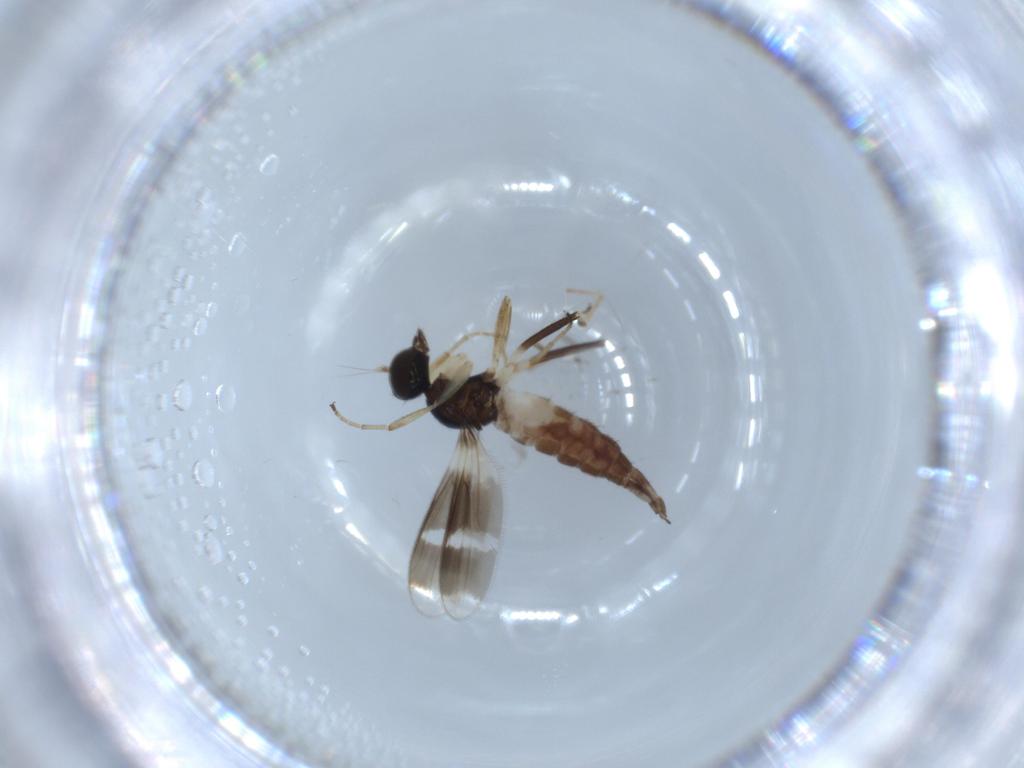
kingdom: Animalia
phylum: Arthropoda
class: Insecta
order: Diptera
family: Hybotidae
